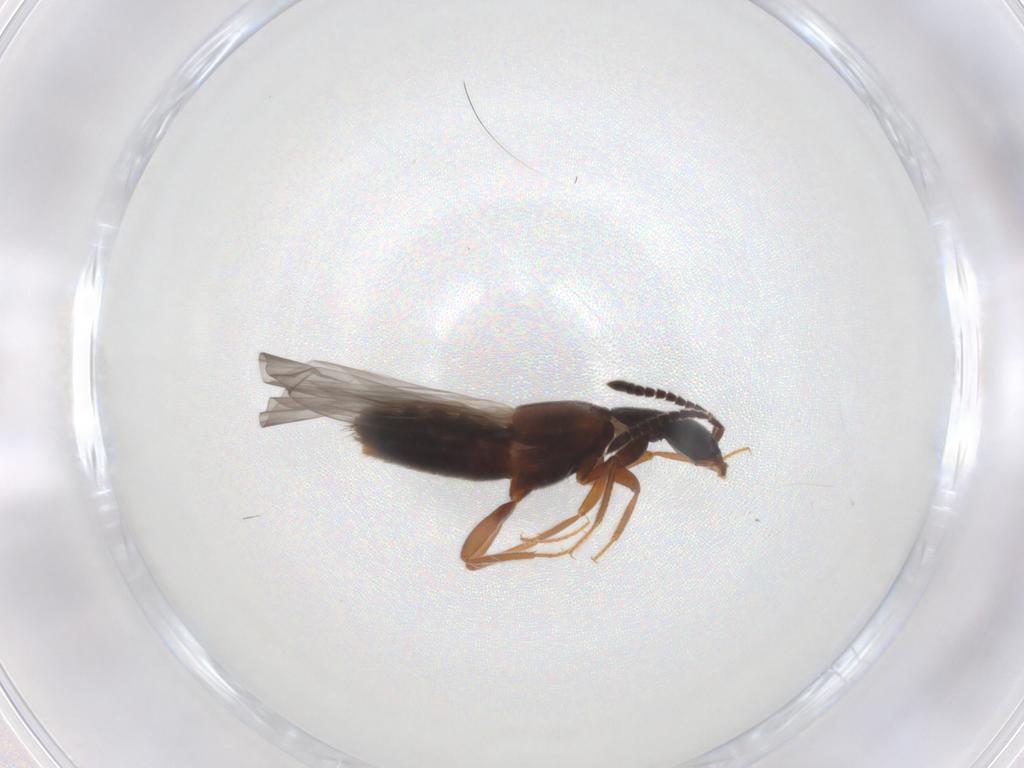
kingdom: Animalia
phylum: Arthropoda
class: Insecta
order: Coleoptera
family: Staphylinidae
